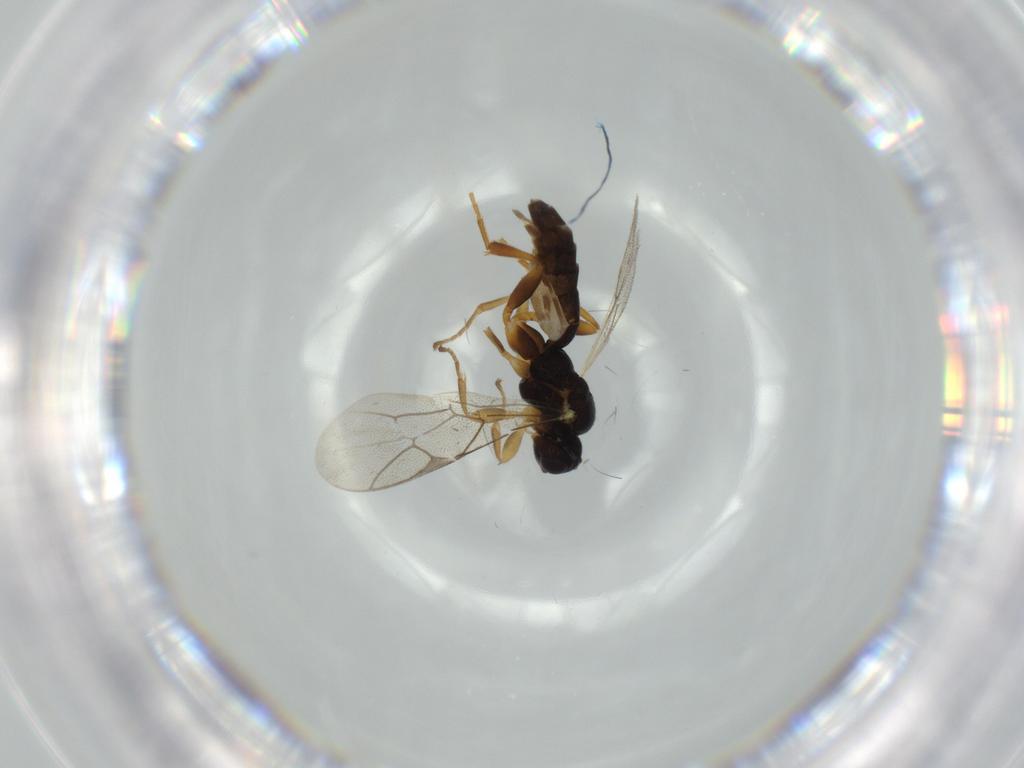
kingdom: Animalia
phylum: Arthropoda
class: Insecta
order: Hymenoptera
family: Ichneumonidae
